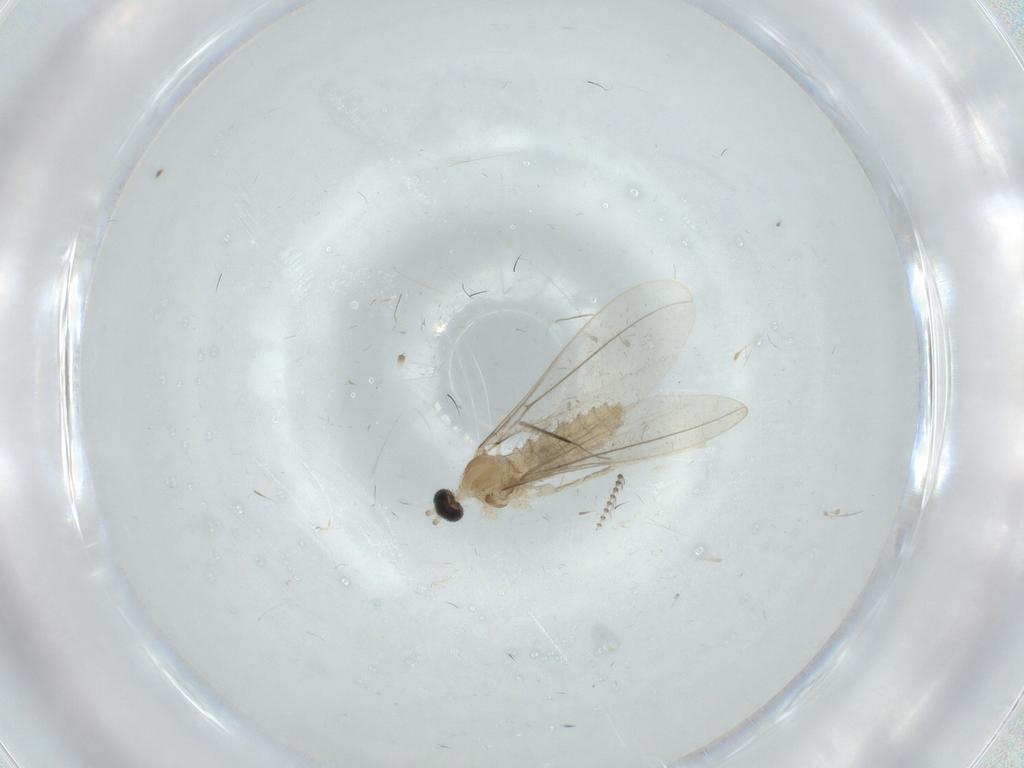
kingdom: Animalia
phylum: Arthropoda
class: Insecta
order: Diptera
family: Cecidomyiidae
